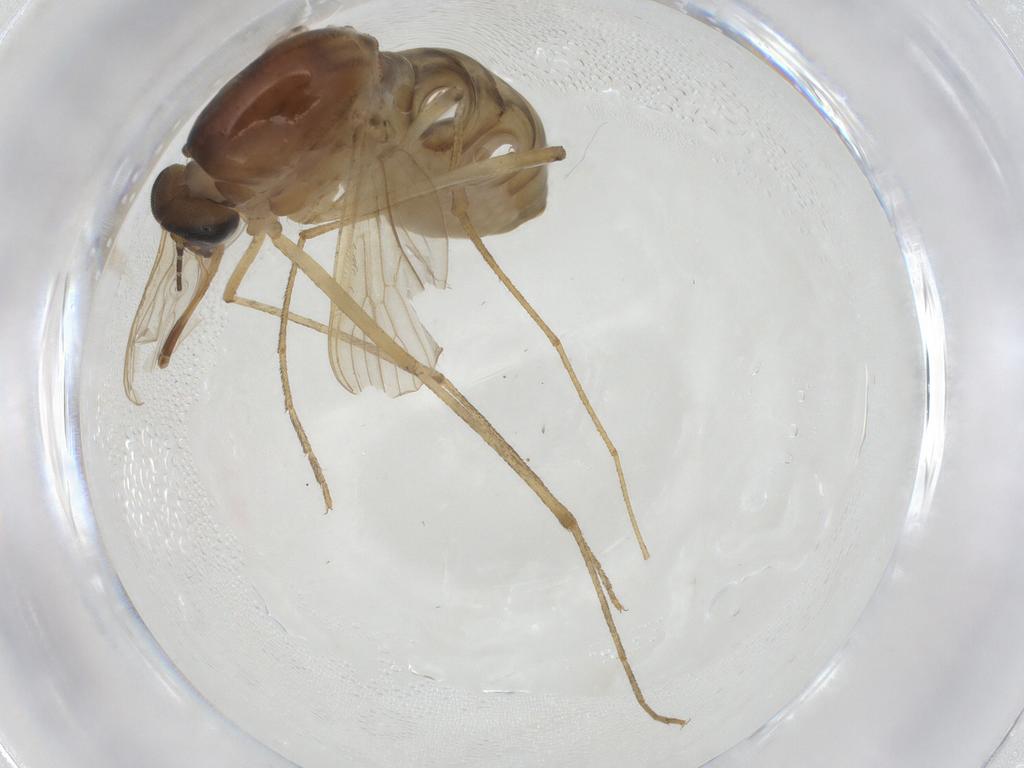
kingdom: Animalia
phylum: Arthropoda
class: Insecta
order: Diptera
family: Culicidae
